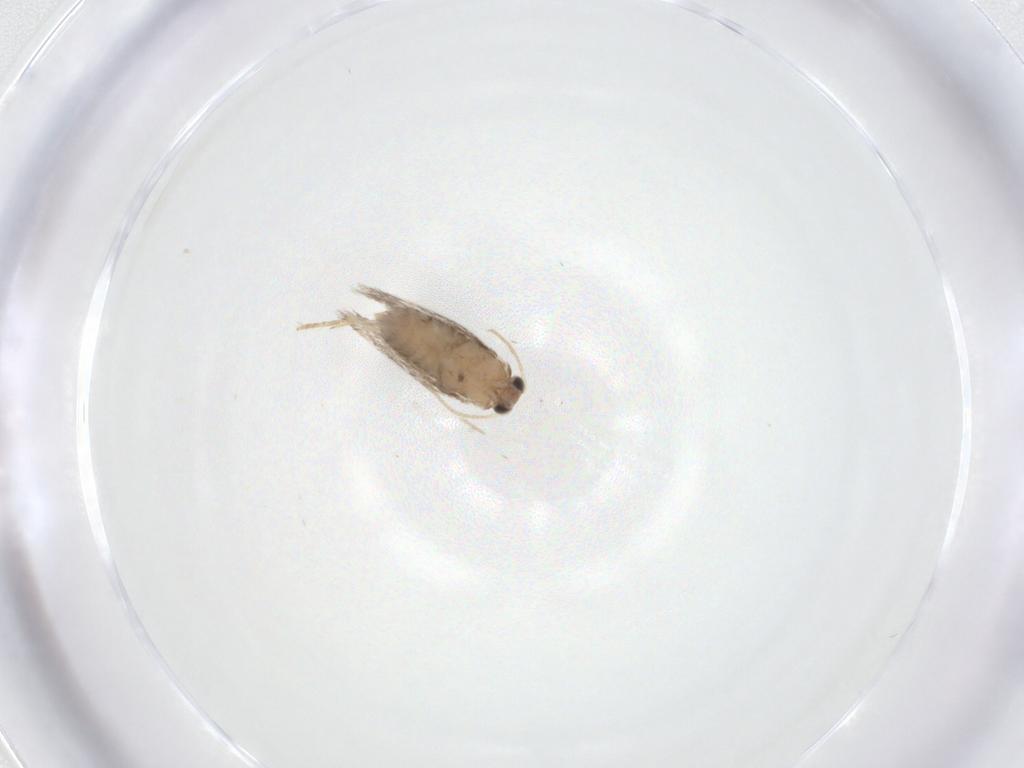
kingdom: Animalia
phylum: Arthropoda
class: Insecta
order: Lepidoptera
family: Nepticulidae
